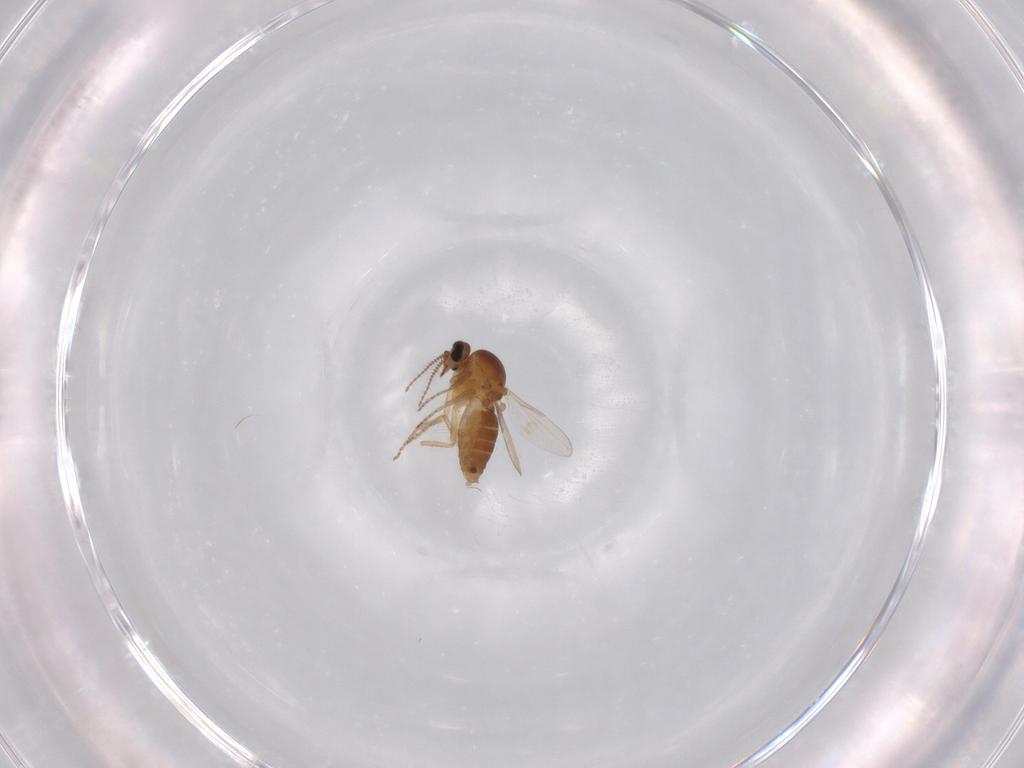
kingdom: Animalia
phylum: Arthropoda
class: Insecta
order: Diptera
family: Ceratopogonidae
